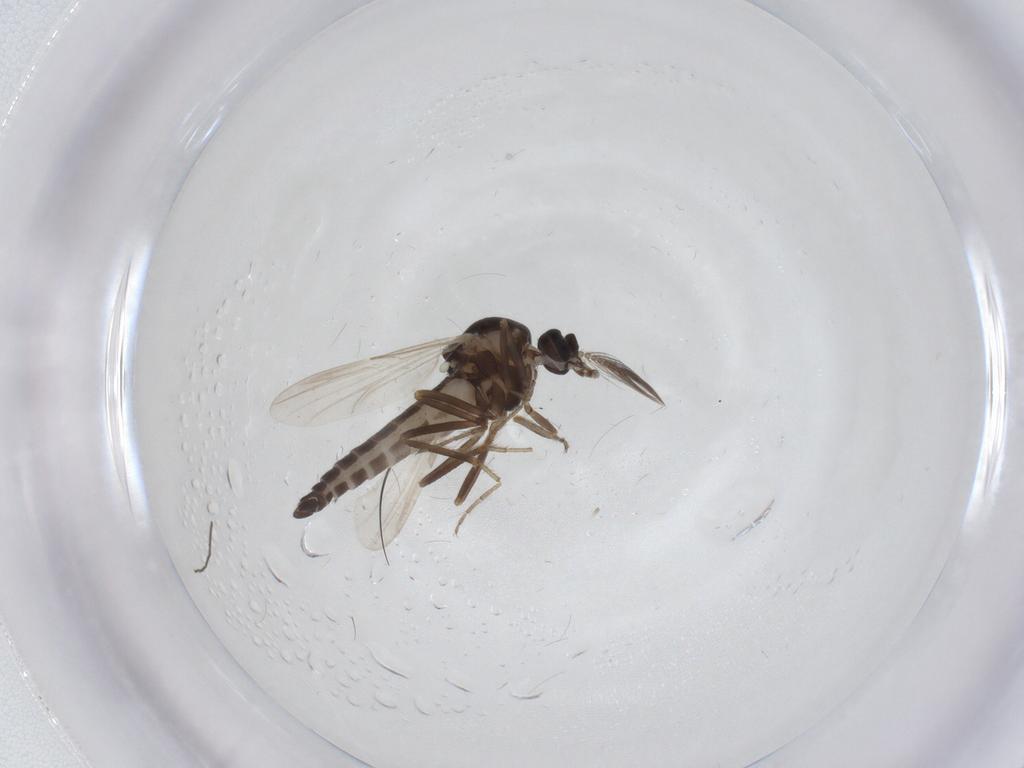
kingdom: Animalia
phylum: Arthropoda
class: Insecta
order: Diptera
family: Ceratopogonidae
